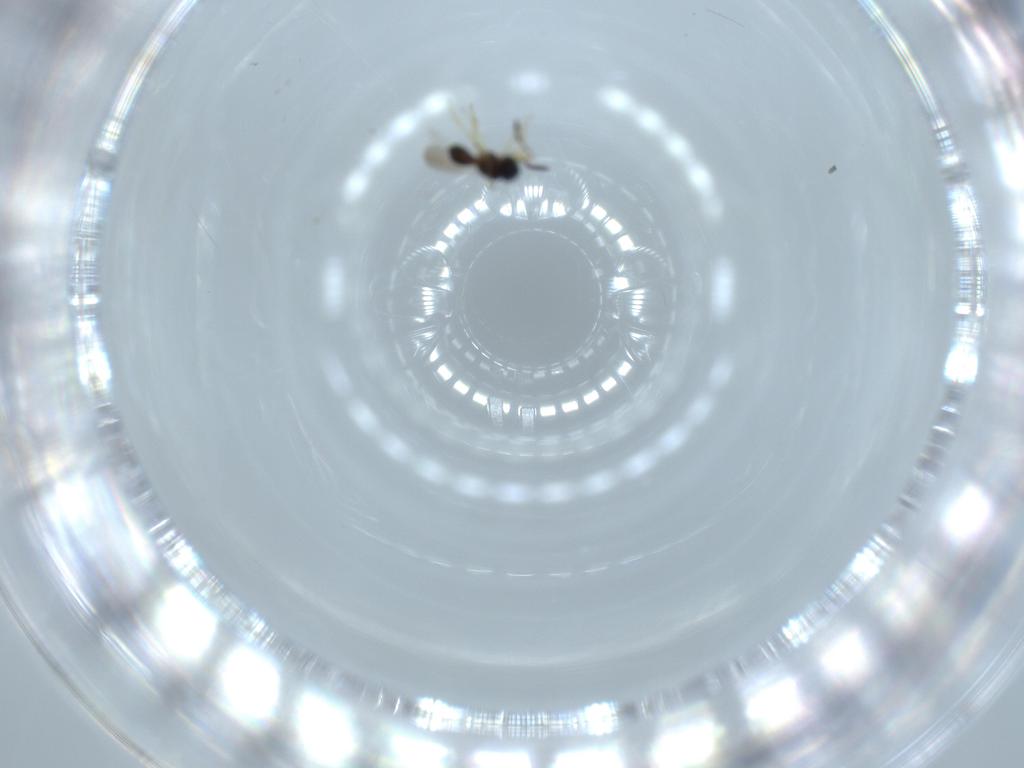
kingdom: Animalia
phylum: Arthropoda
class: Insecta
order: Hymenoptera
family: Scelionidae
